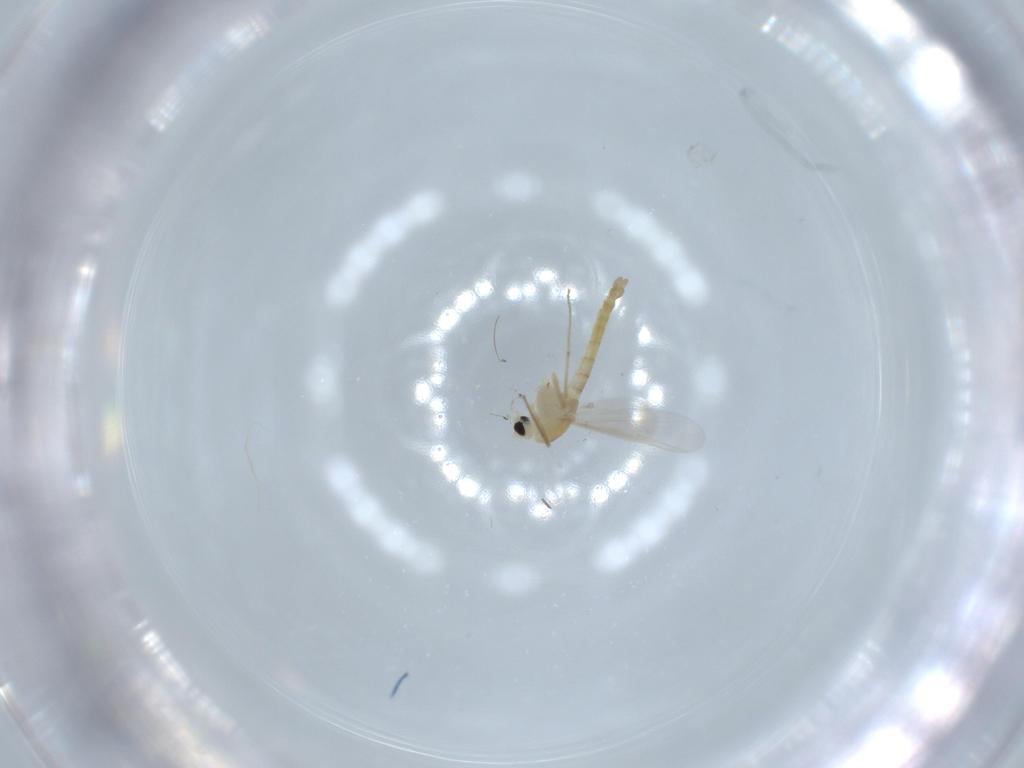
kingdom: Animalia
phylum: Arthropoda
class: Insecta
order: Diptera
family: Chironomidae
